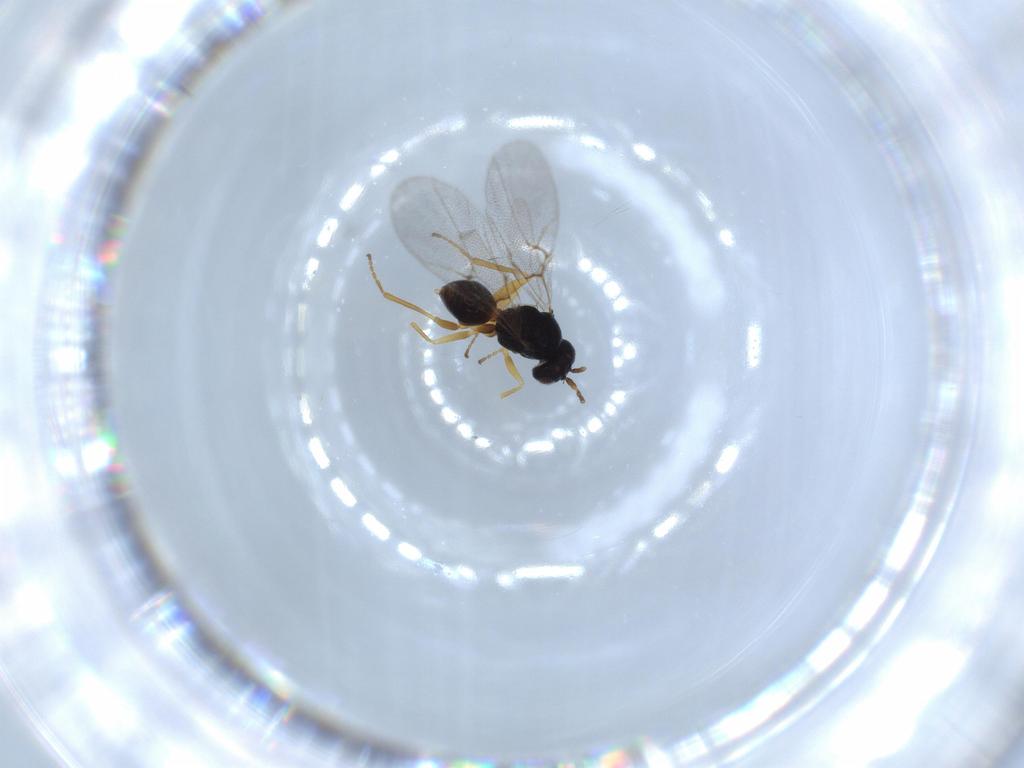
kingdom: Animalia
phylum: Arthropoda
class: Insecta
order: Hymenoptera
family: Cynipidae
